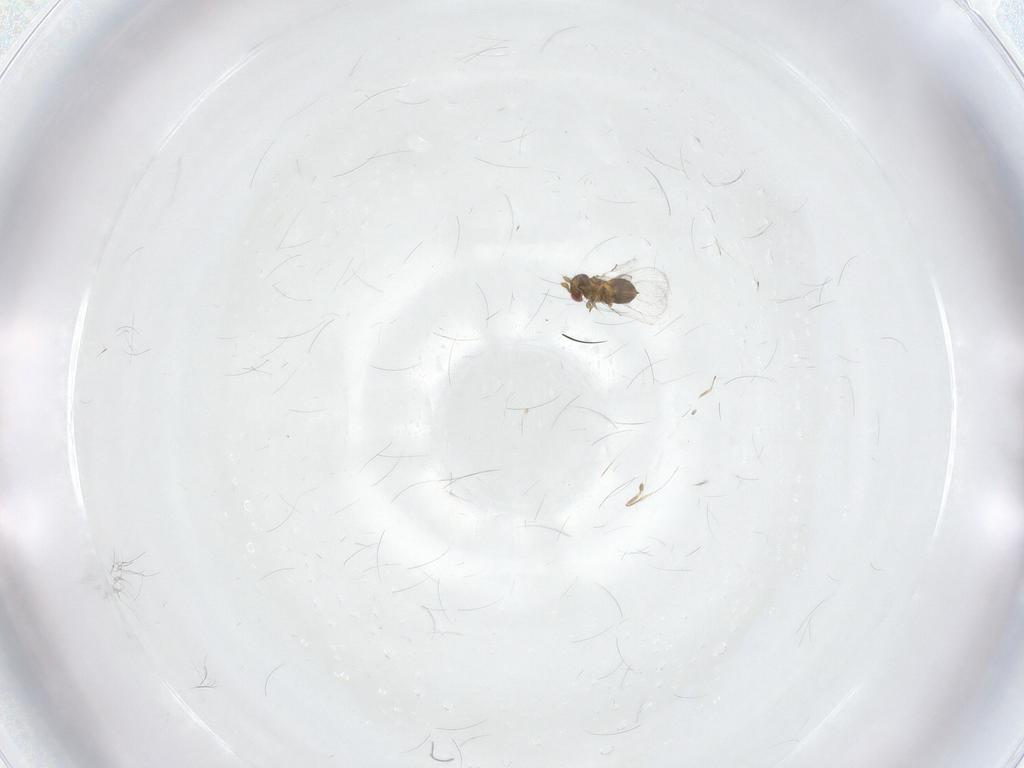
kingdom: Animalia
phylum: Arthropoda
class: Insecta
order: Hymenoptera
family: Trichogrammatidae
